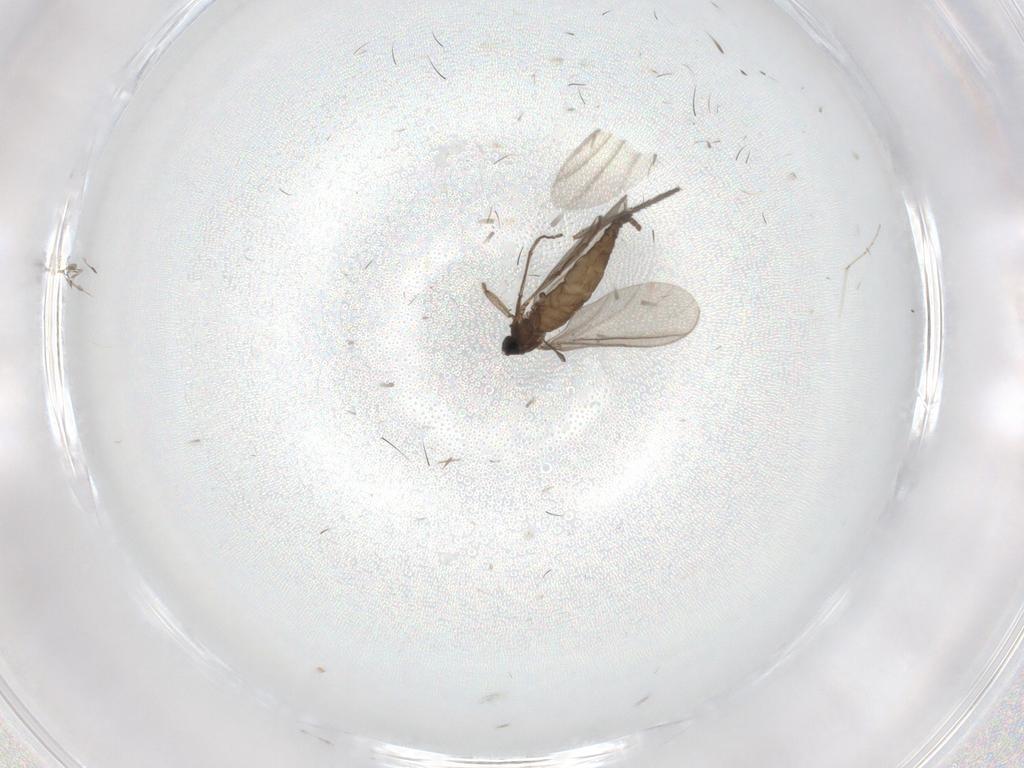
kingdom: Animalia
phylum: Arthropoda
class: Insecta
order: Diptera
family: Sciaridae
